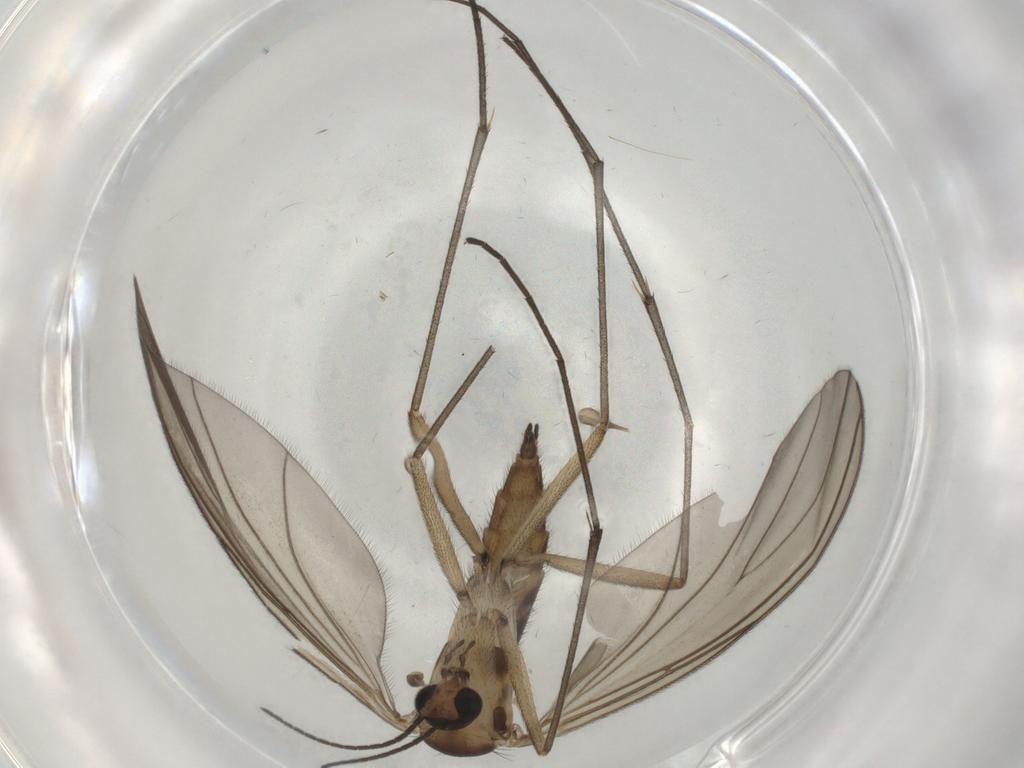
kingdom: Animalia
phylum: Arthropoda
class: Insecta
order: Diptera
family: Sciaridae
